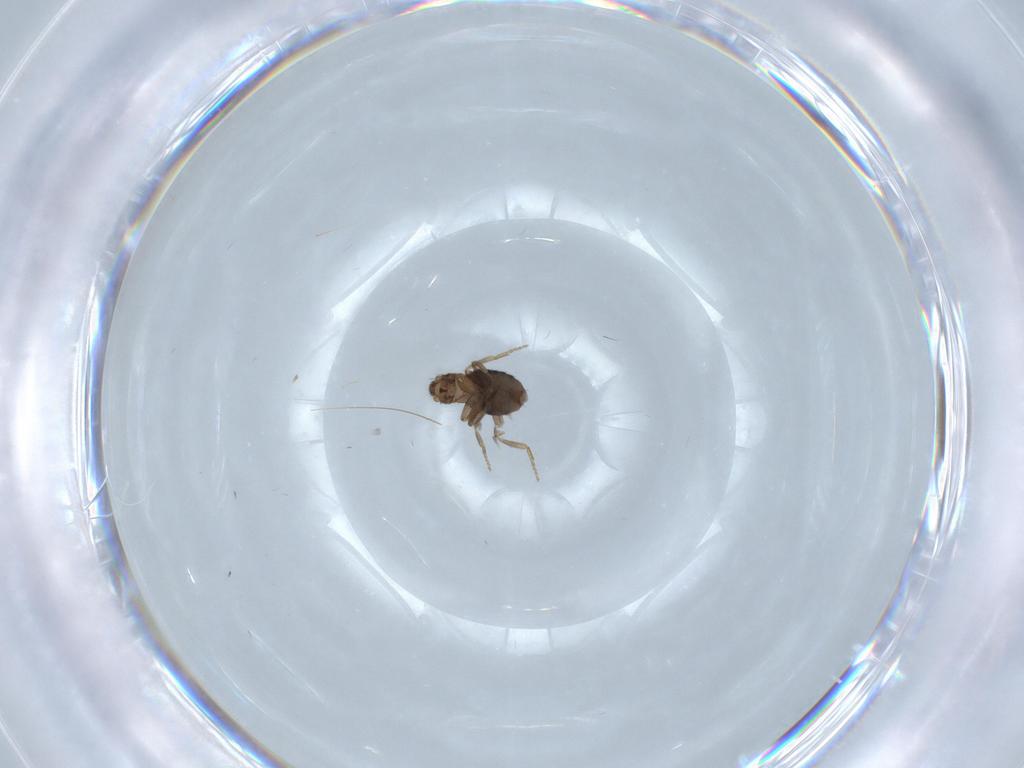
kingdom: Animalia
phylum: Arthropoda
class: Insecta
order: Diptera
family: Phoridae
